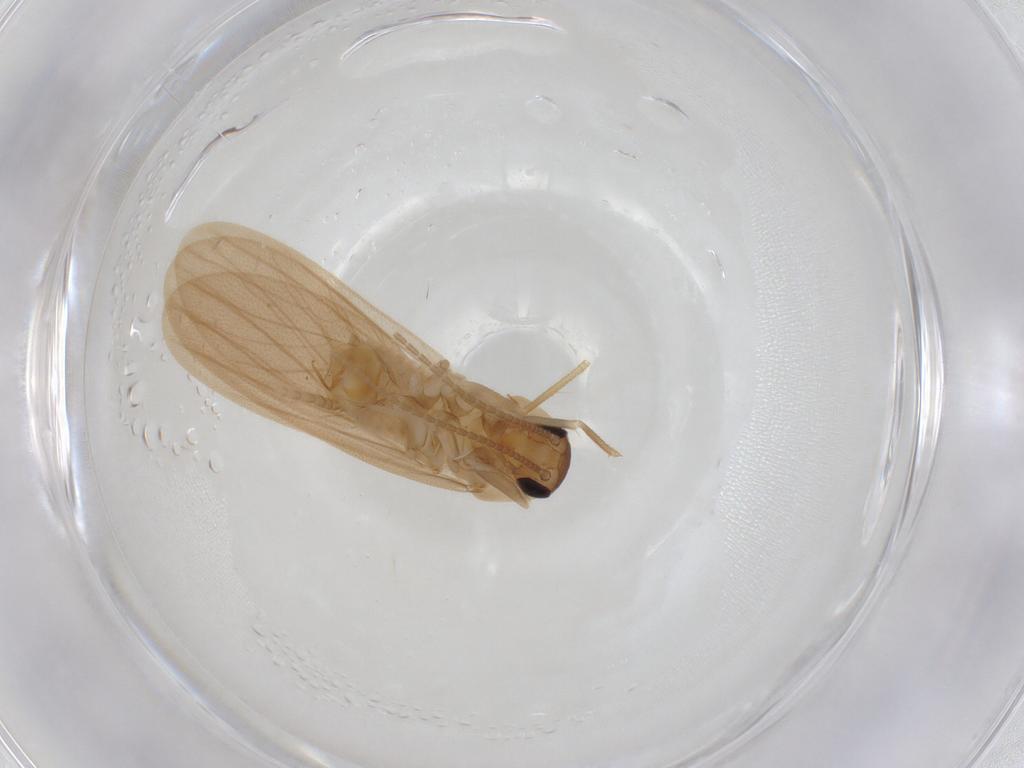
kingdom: Animalia
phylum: Arthropoda
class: Insecta
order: Blattodea
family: Nocticolidae
